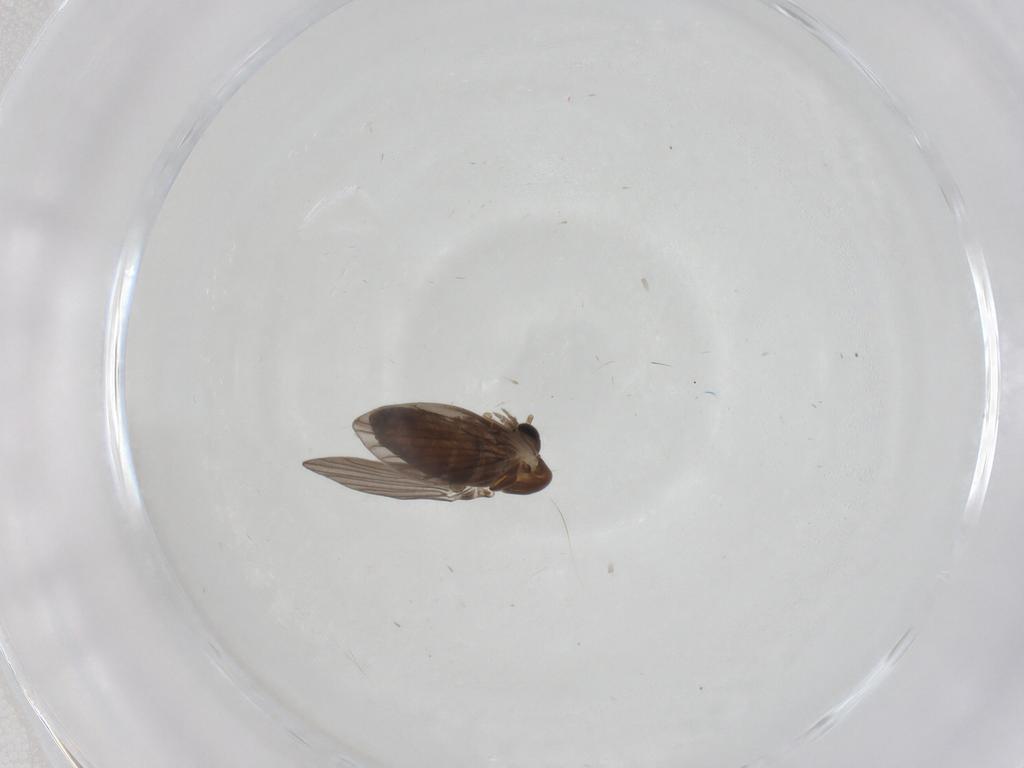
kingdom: Animalia
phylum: Arthropoda
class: Insecta
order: Diptera
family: Psychodidae
